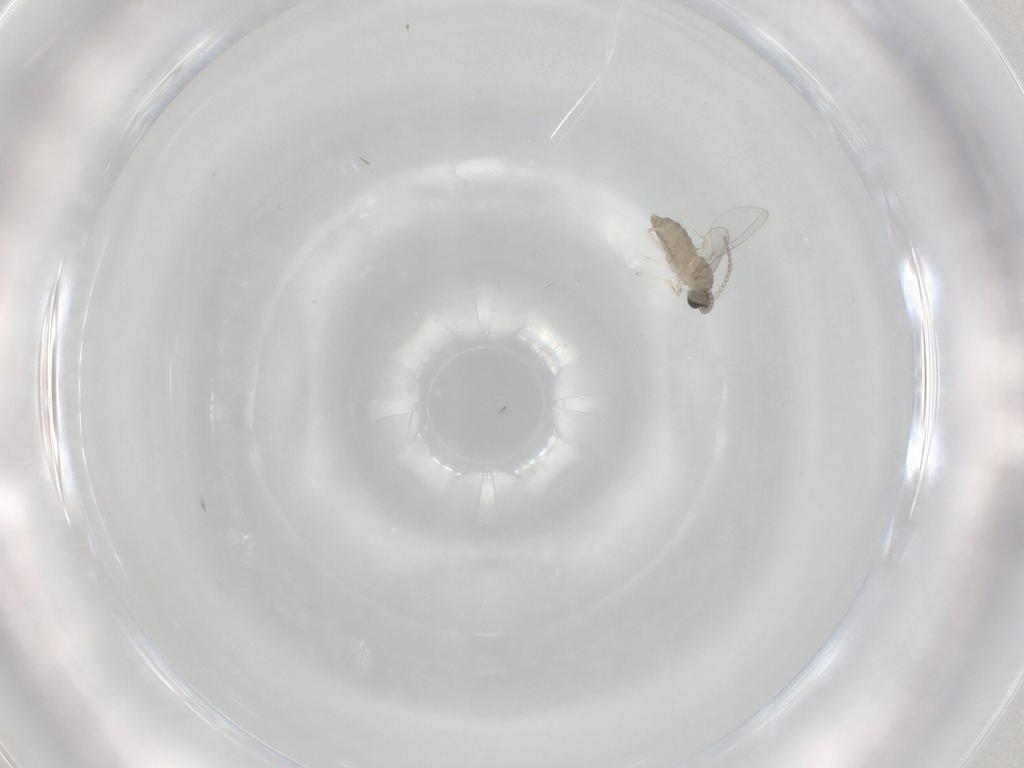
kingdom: Animalia
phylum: Arthropoda
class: Insecta
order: Diptera
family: Cecidomyiidae
